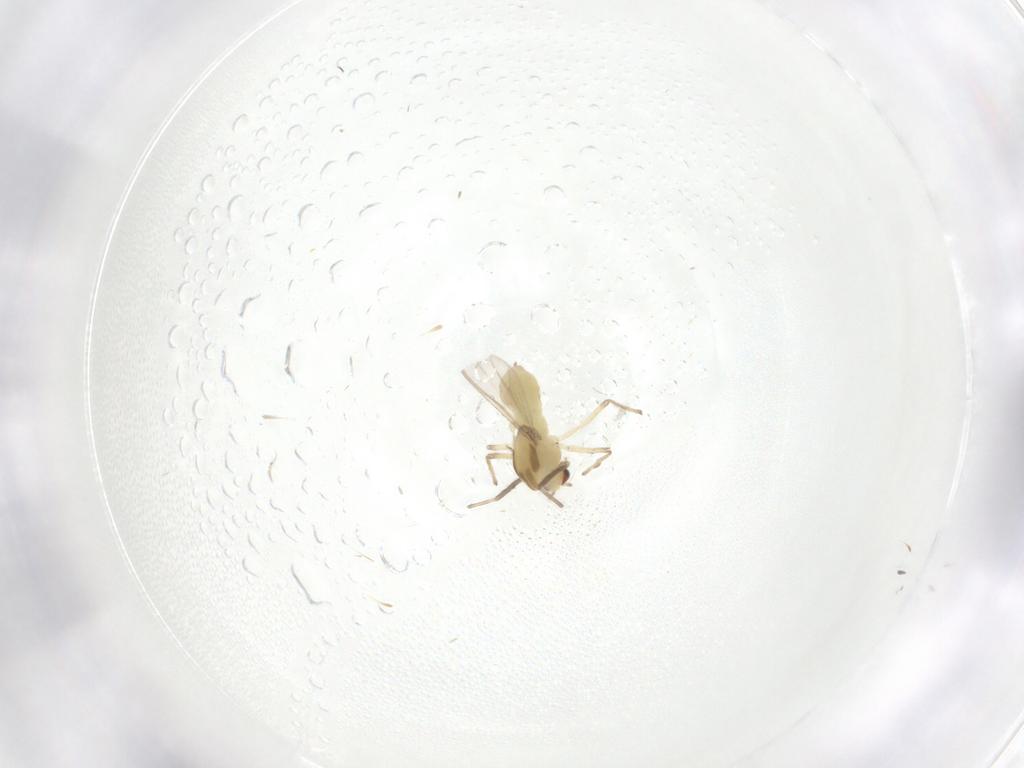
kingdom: Animalia
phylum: Arthropoda
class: Insecta
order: Diptera
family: Chironomidae
